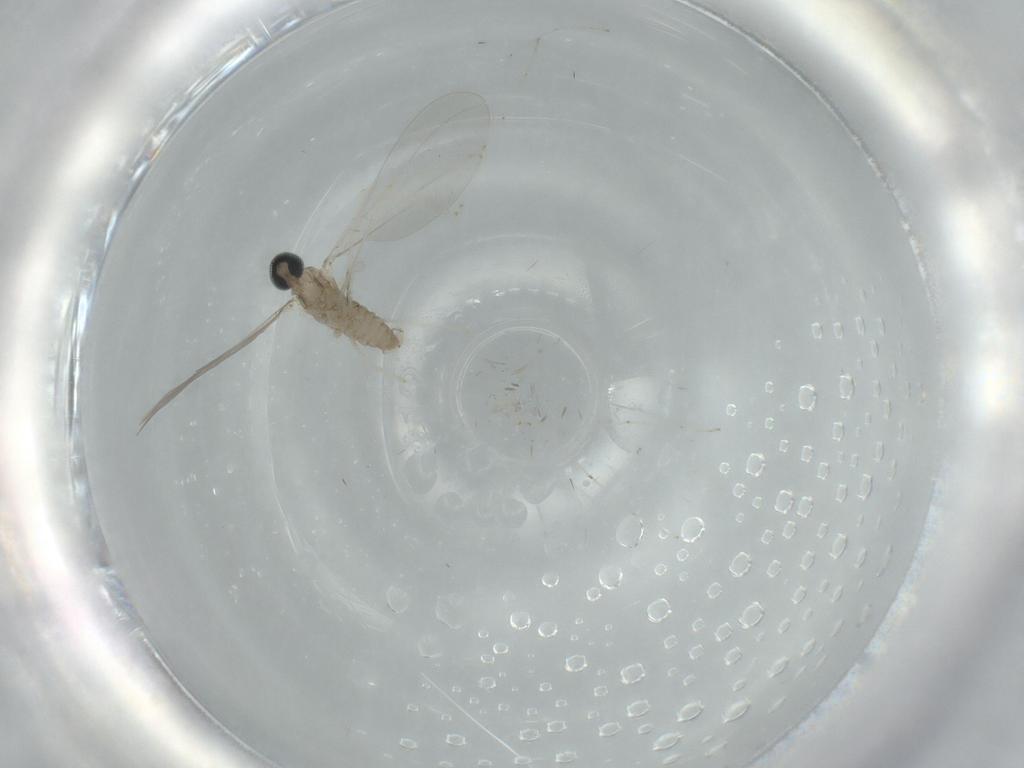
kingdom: Animalia
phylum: Arthropoda
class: Insecta
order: Diptera
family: Cecidomyiidae
